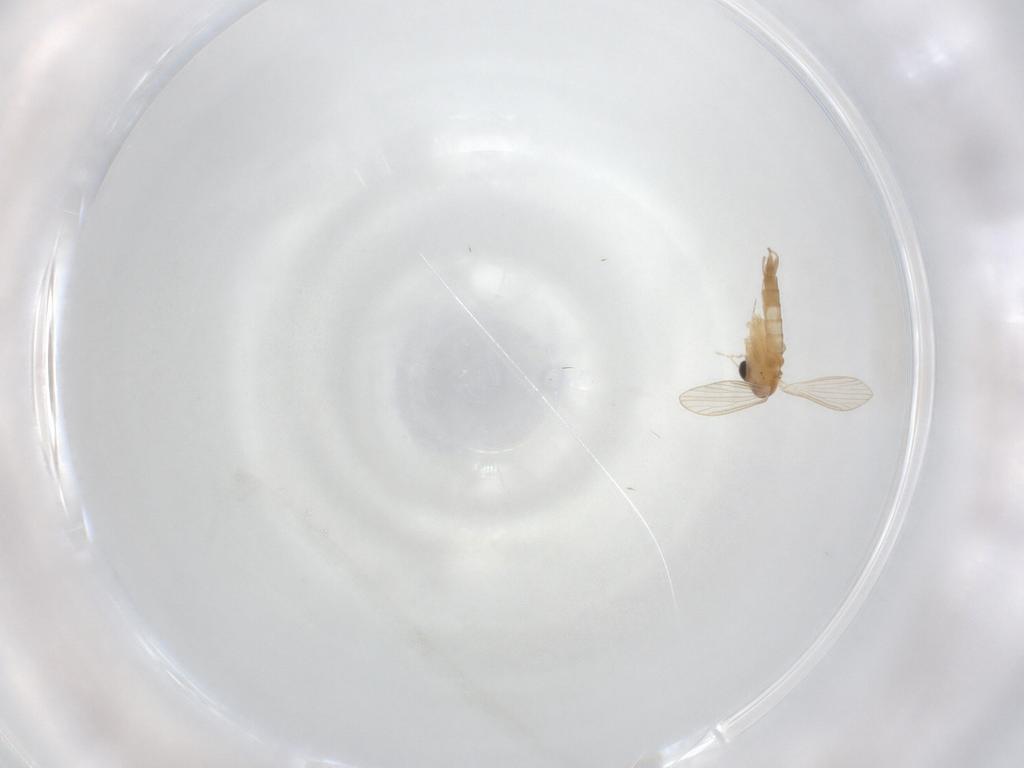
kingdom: Animalia
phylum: Arthropoda
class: Insecta
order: Diptera
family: Psychodidae
